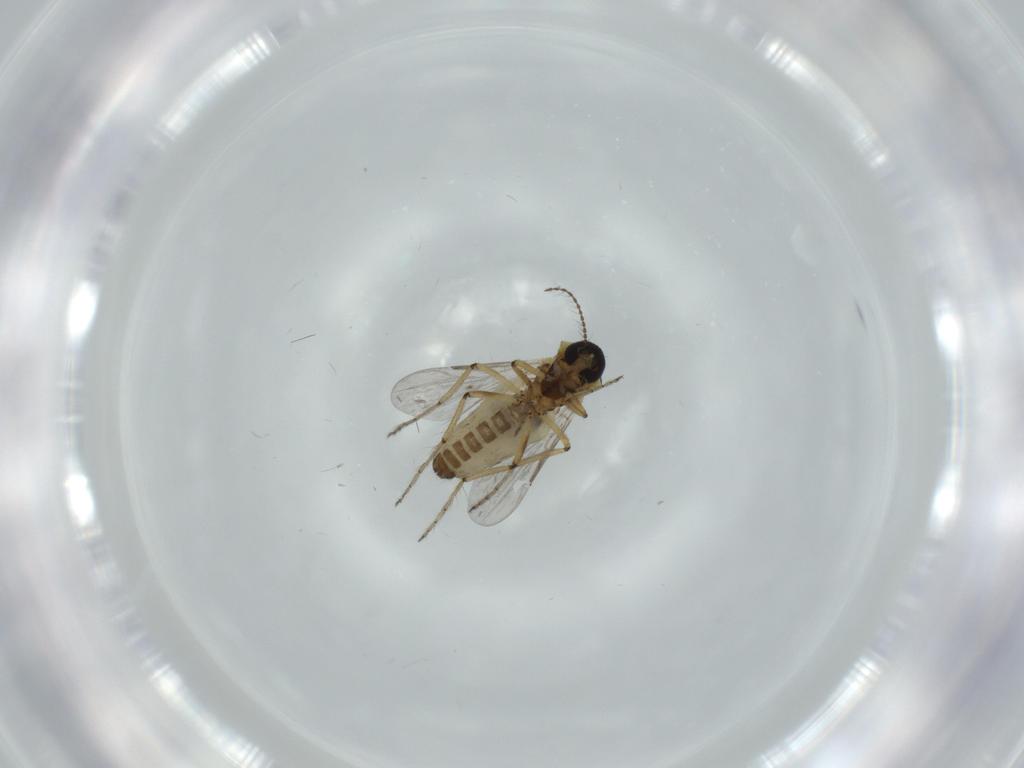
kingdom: Animalia
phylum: Arthropoda
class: Insecta
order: Diptera
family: Ceratopogonidae
